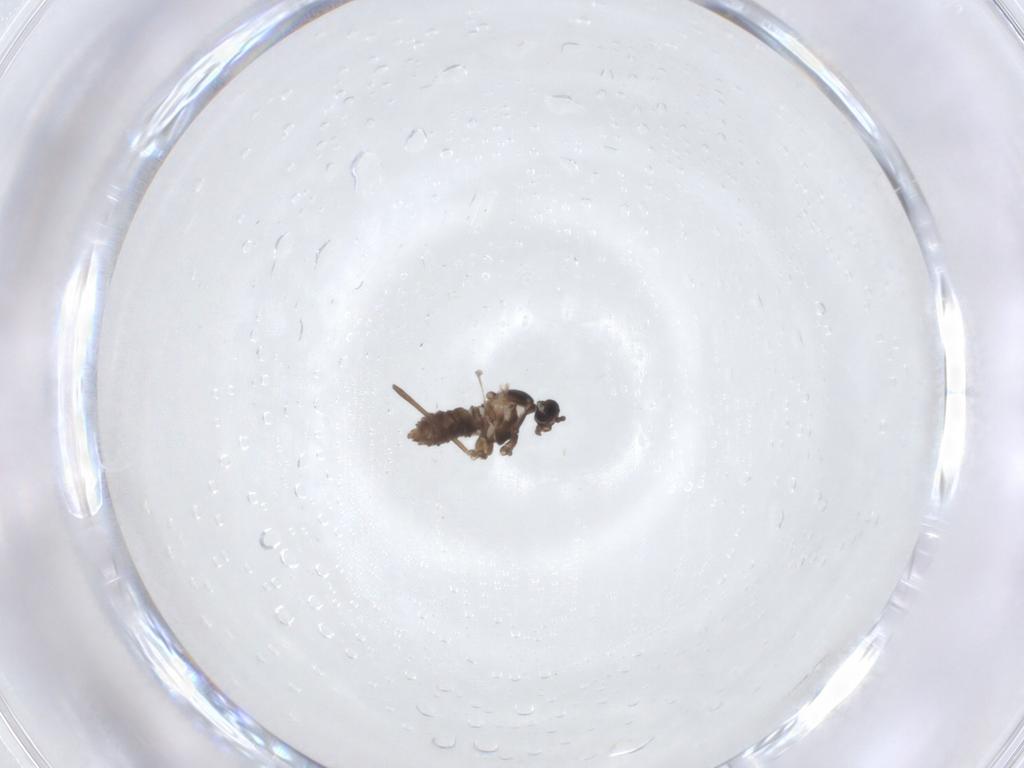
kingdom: Animalia
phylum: Arthropoda
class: Insecta
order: Diptera
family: Cecidomyiidae
